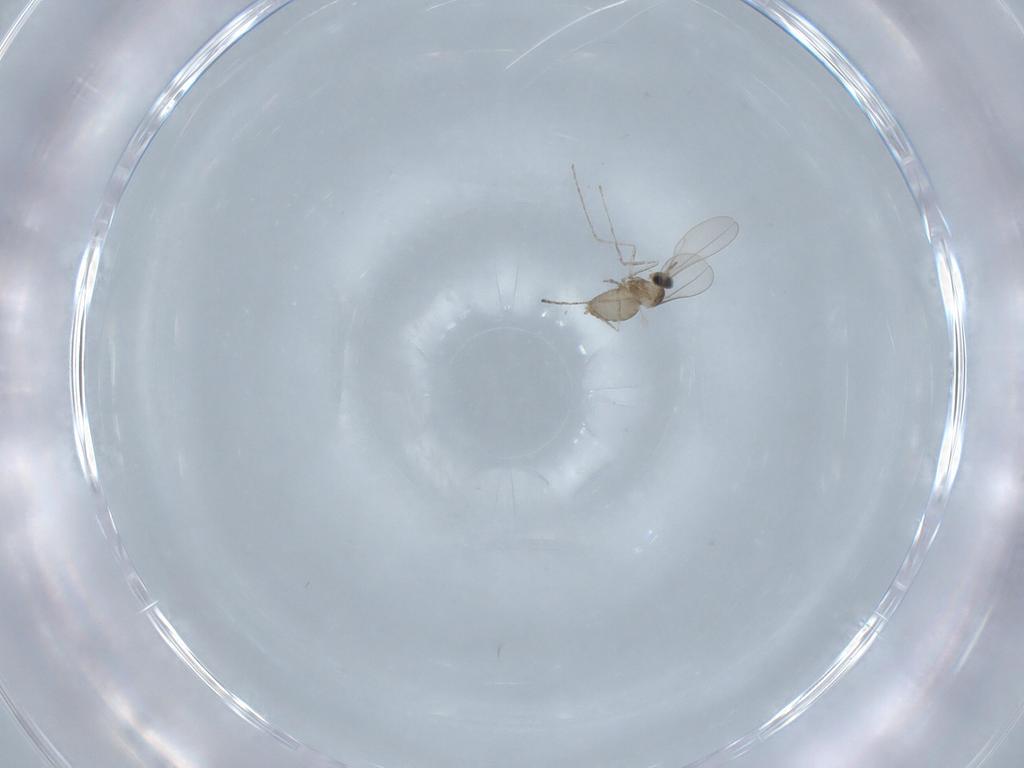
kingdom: Animalia
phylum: Arthropoda
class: Insecta
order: Diptera
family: Cecidomyiidae
